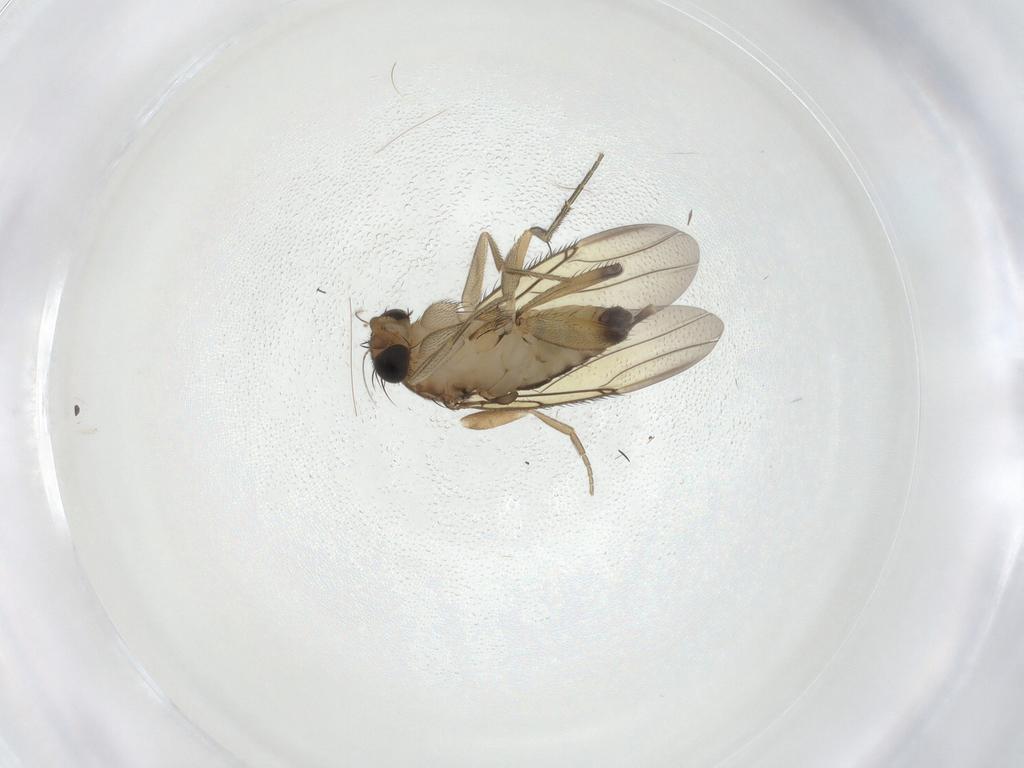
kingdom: Animalia
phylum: Arthropoda
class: Insecta
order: Diptera
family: Phoridae
